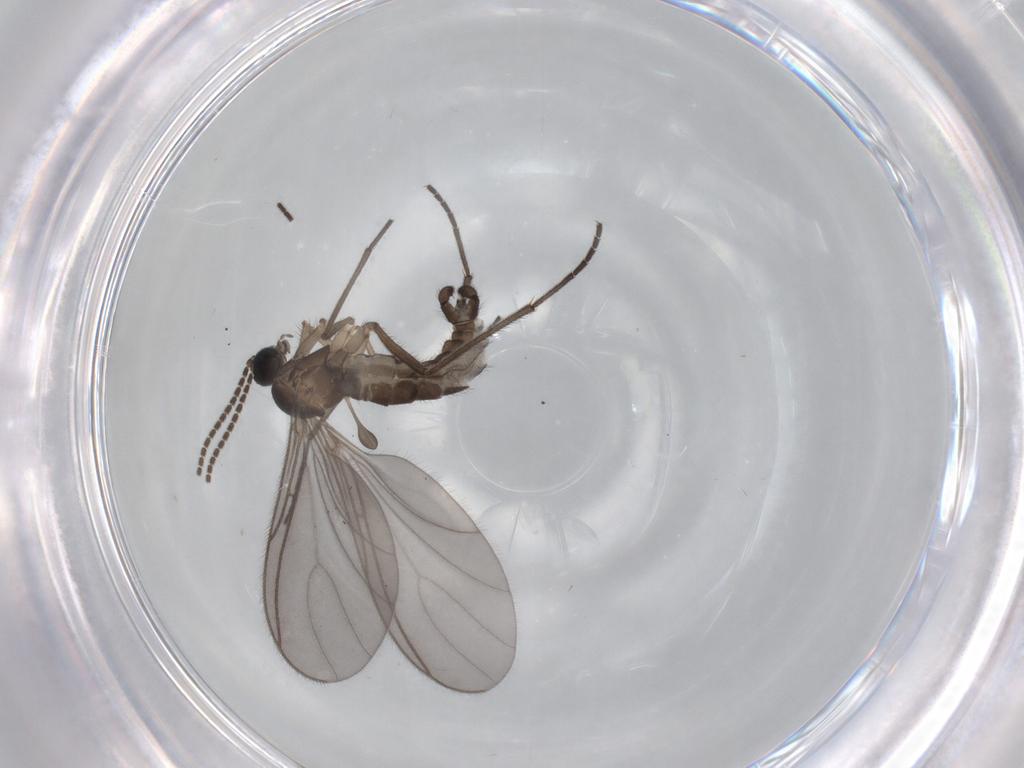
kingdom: Animalia
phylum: Arthropoda
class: Insecta
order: Diptera
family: Sciaridae
